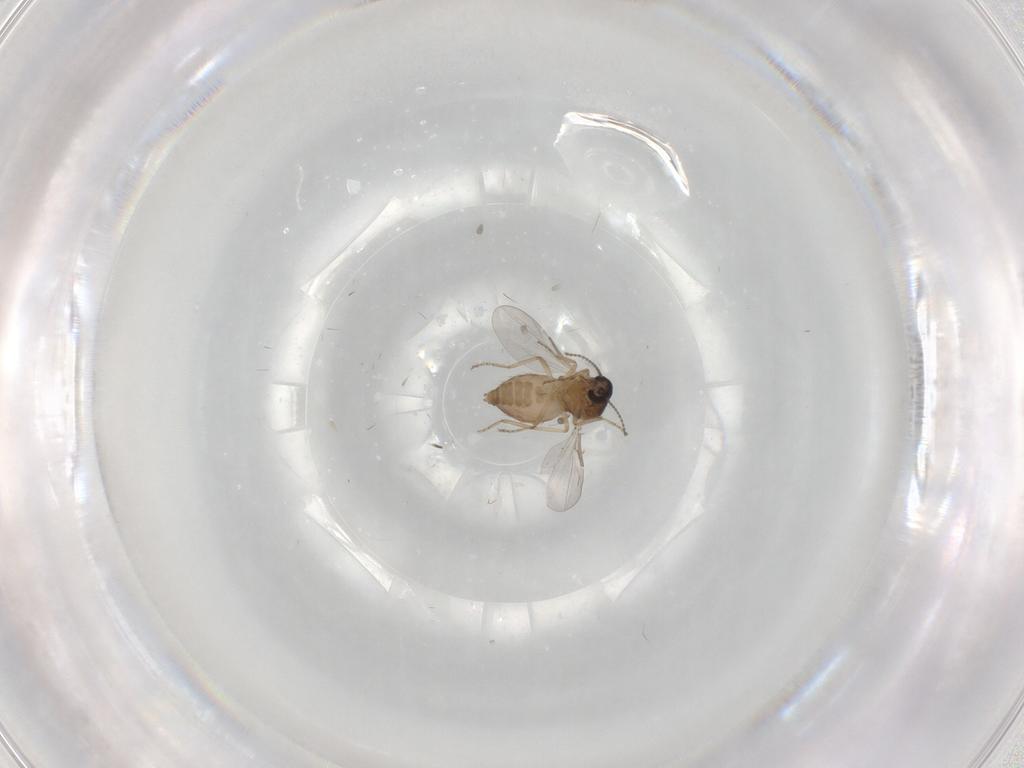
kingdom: Animalia
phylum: Arthropoda
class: Insecta
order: Diptera
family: Ceratopogonidae
